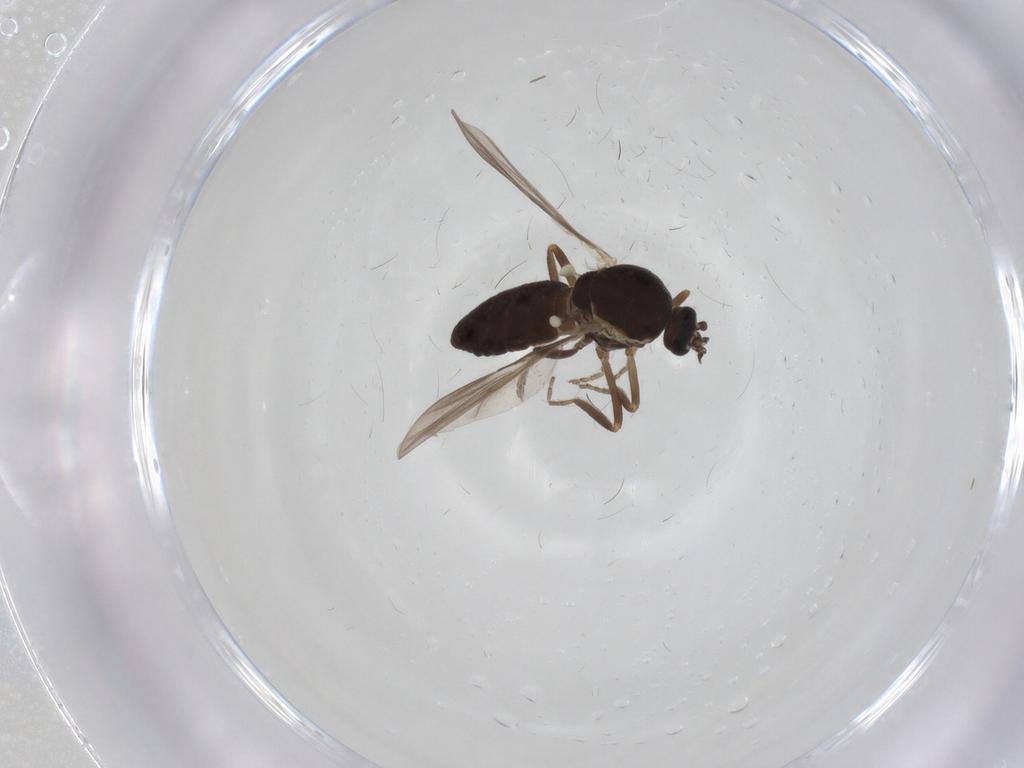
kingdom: Animalia
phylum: Arthropoda
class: Insecta
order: Diptera
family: Ceratopogonidae
